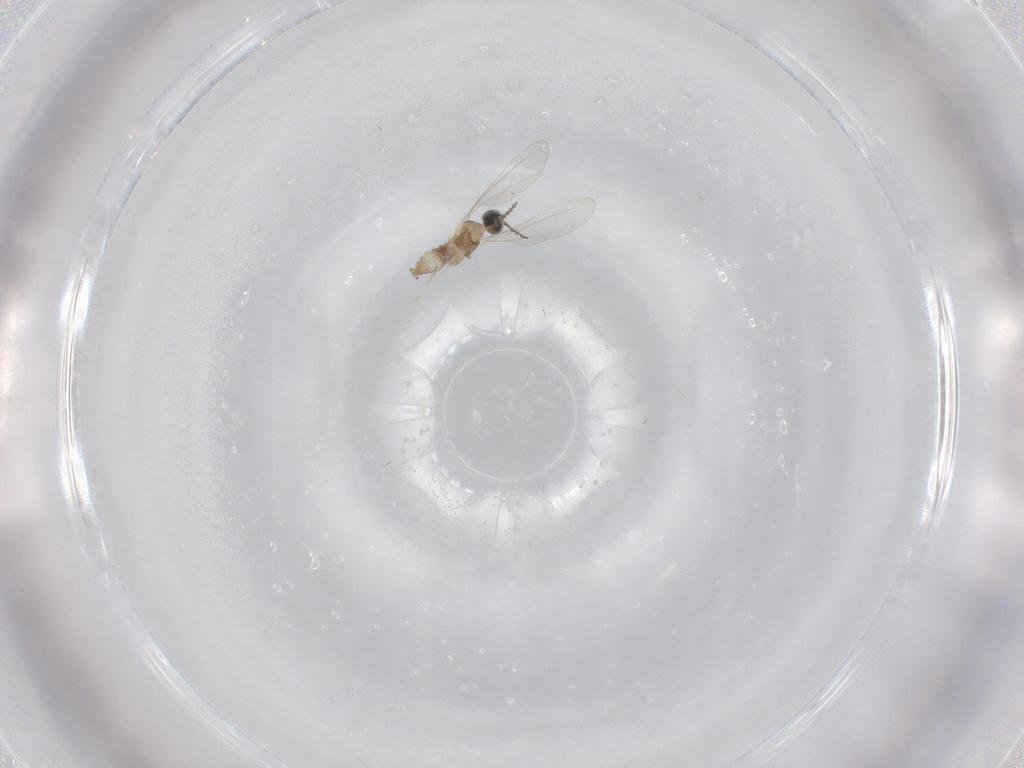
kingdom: Animalia
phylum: Arthropoda
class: Insecta
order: Diptera
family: Cecidomyiidae
